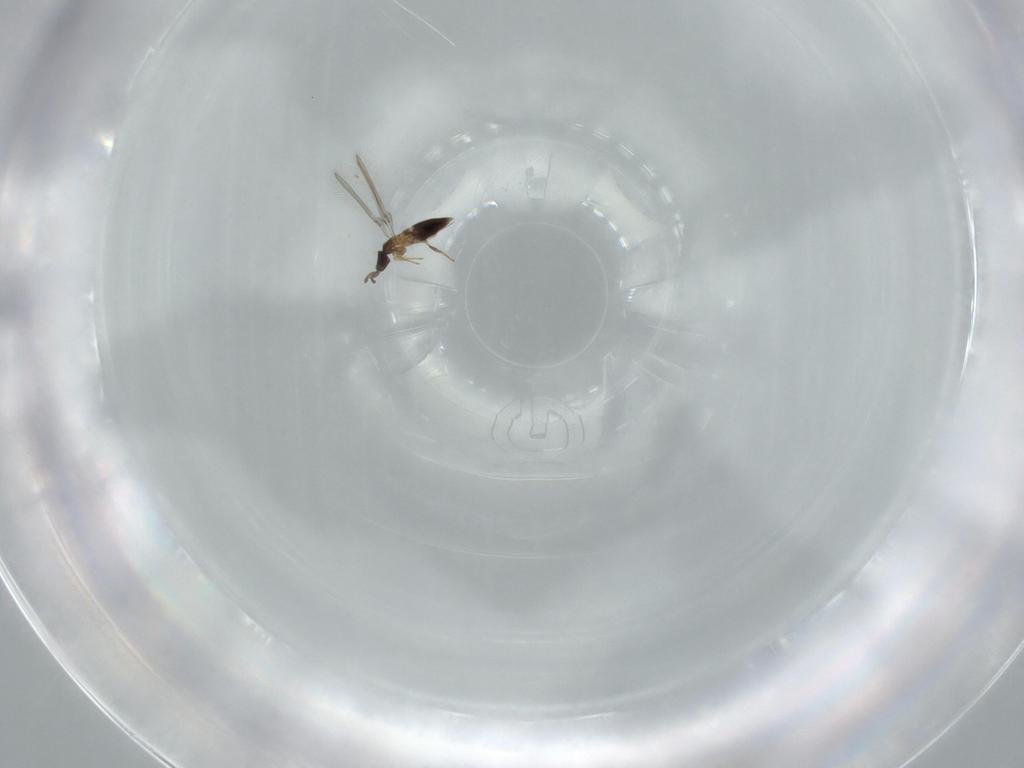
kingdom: Animalia
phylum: Arthropoda
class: Insecta
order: Hymenoptera
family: Mymaridae
